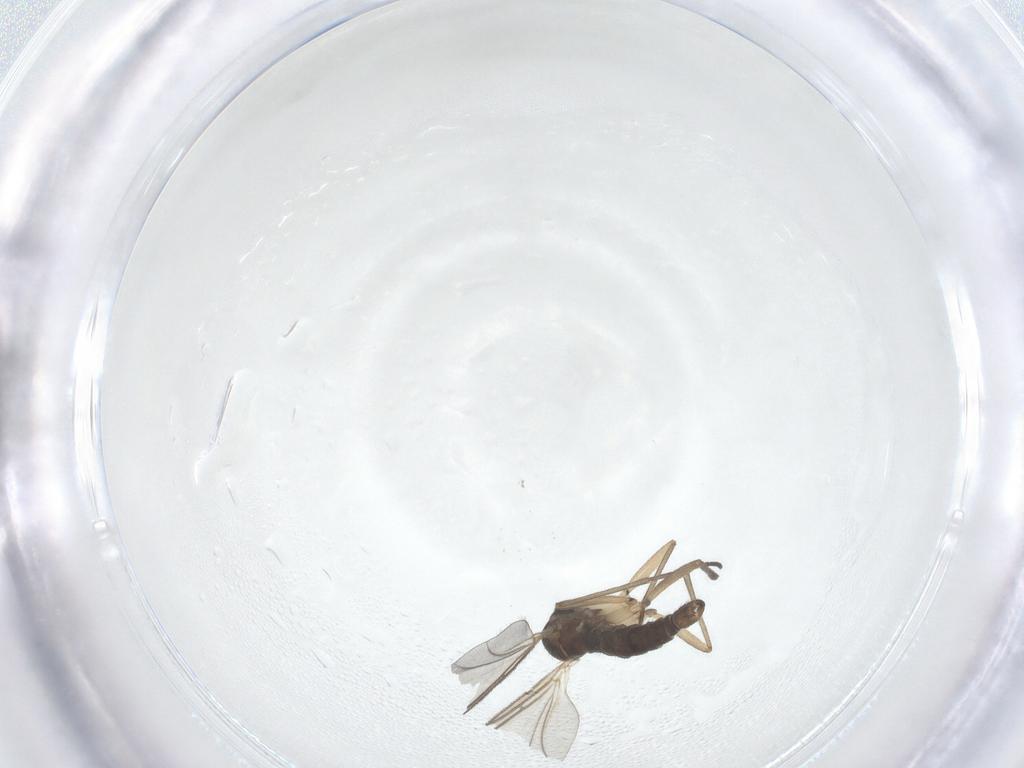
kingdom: Animalia
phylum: Arthropoda
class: Insecta
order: Diptera
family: Sciaridae
